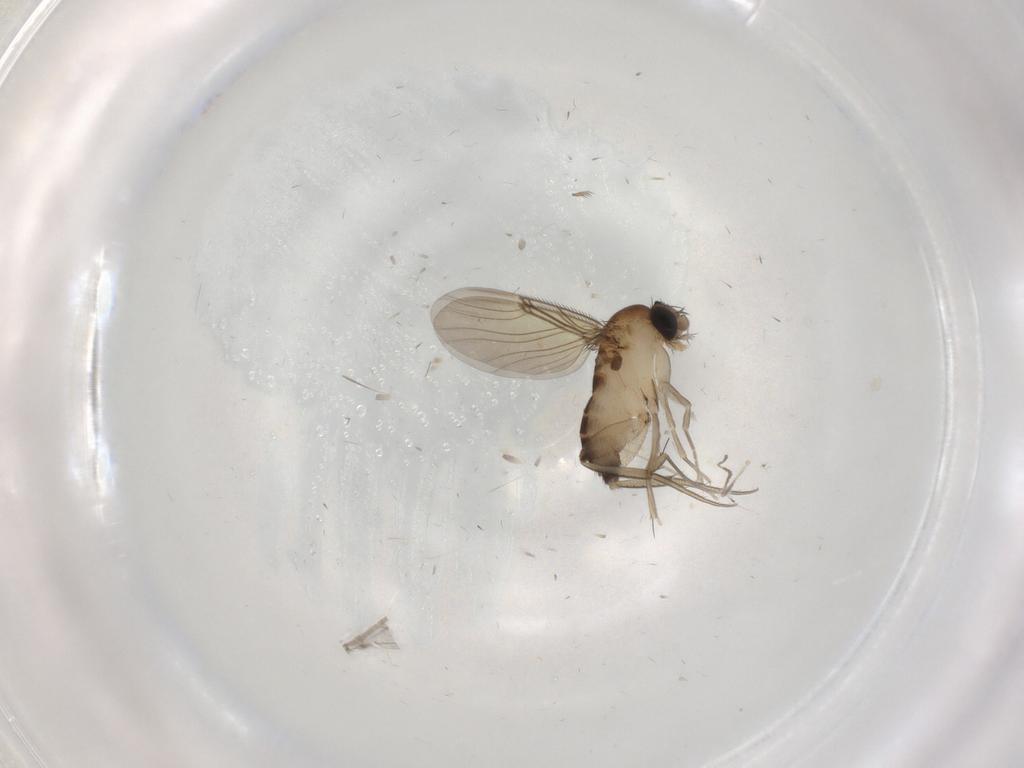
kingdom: Animalia
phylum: Arthropoda
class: Insecta
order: Diptera
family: Phoridae
